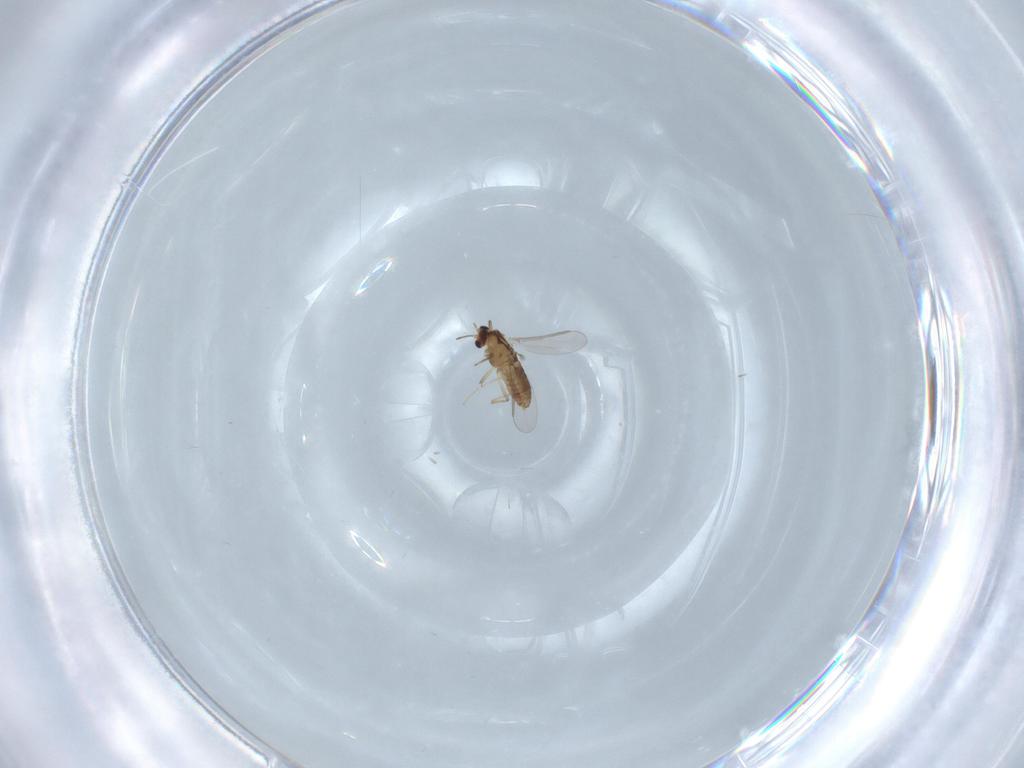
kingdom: Animalia
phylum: Arthropoda
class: Insecta
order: Diptera
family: Chironomidae
